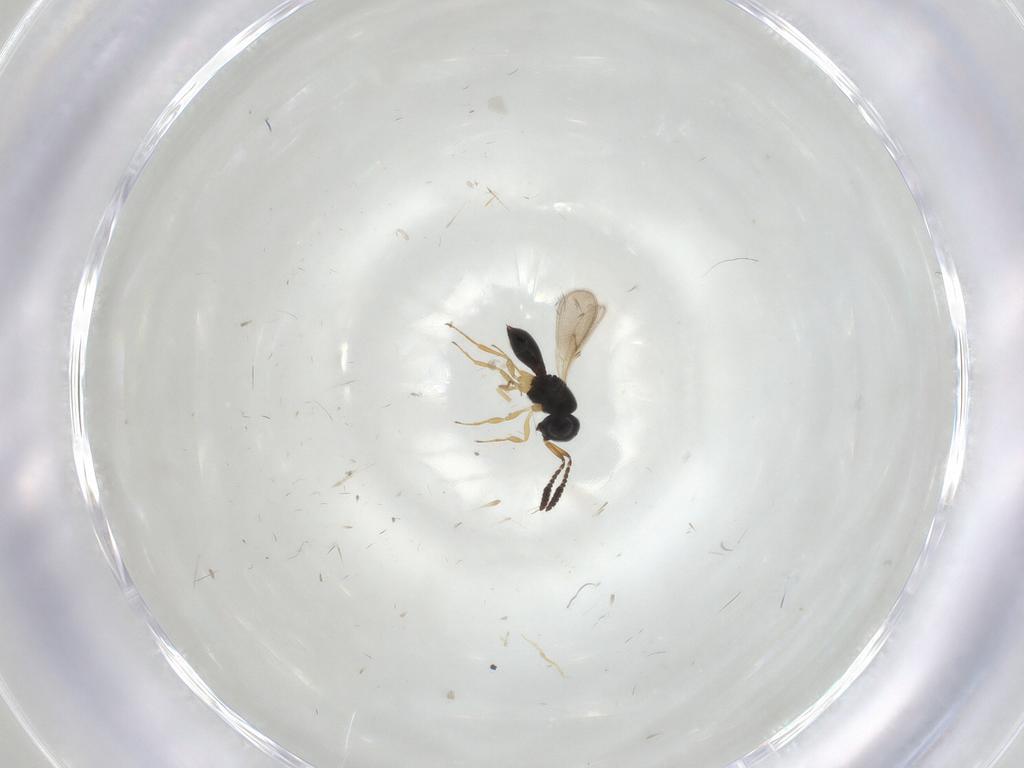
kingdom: Animalia
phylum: Arthropoda
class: Insecta
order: Hymenoptera
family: Scelionidae
